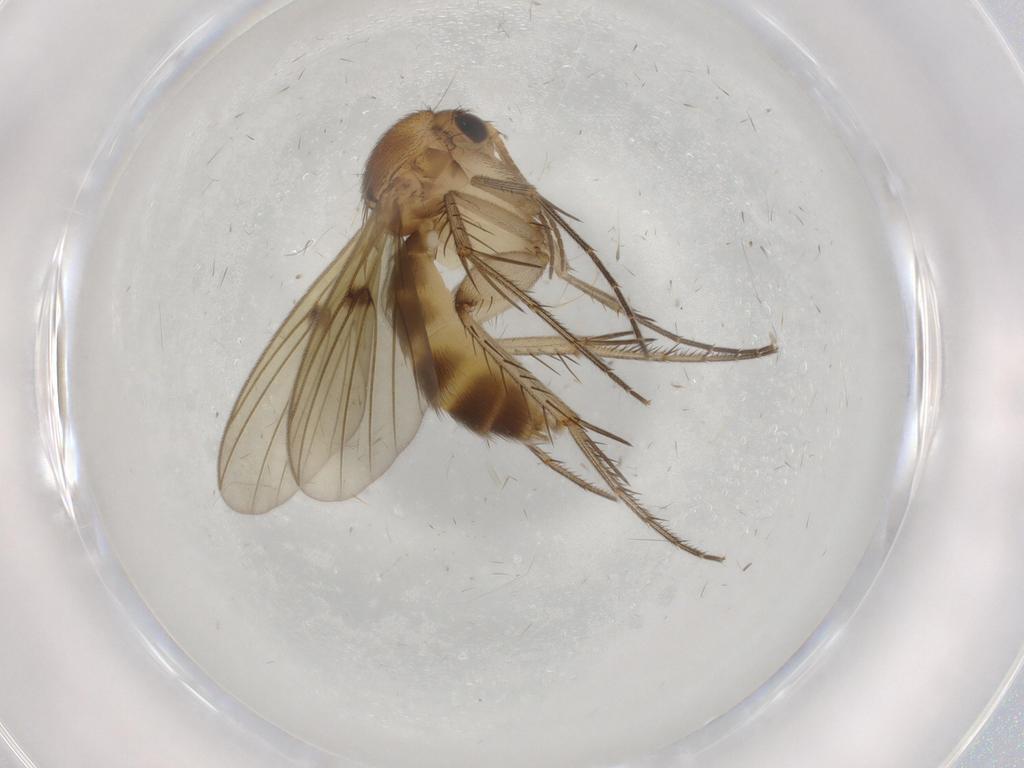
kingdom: Animalia
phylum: Arthropoda
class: Insecta
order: Diptera
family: Mycetophilidae
